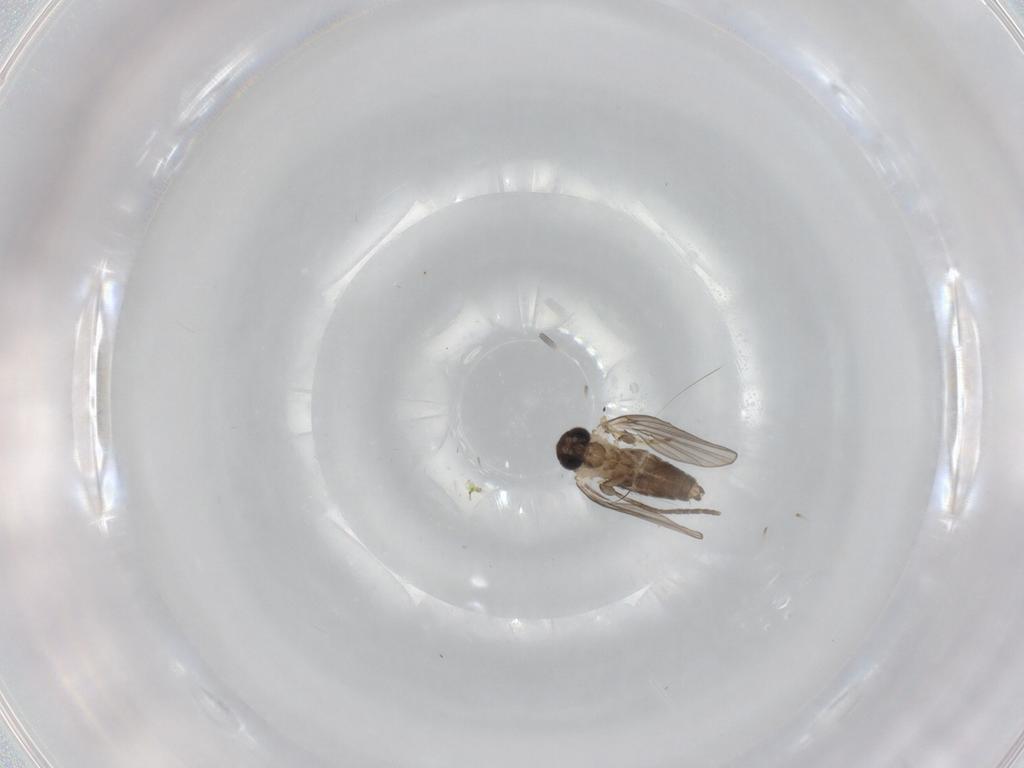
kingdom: Animalia
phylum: Arthropoda
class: Insecta
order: Diptera
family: Psychodidae
